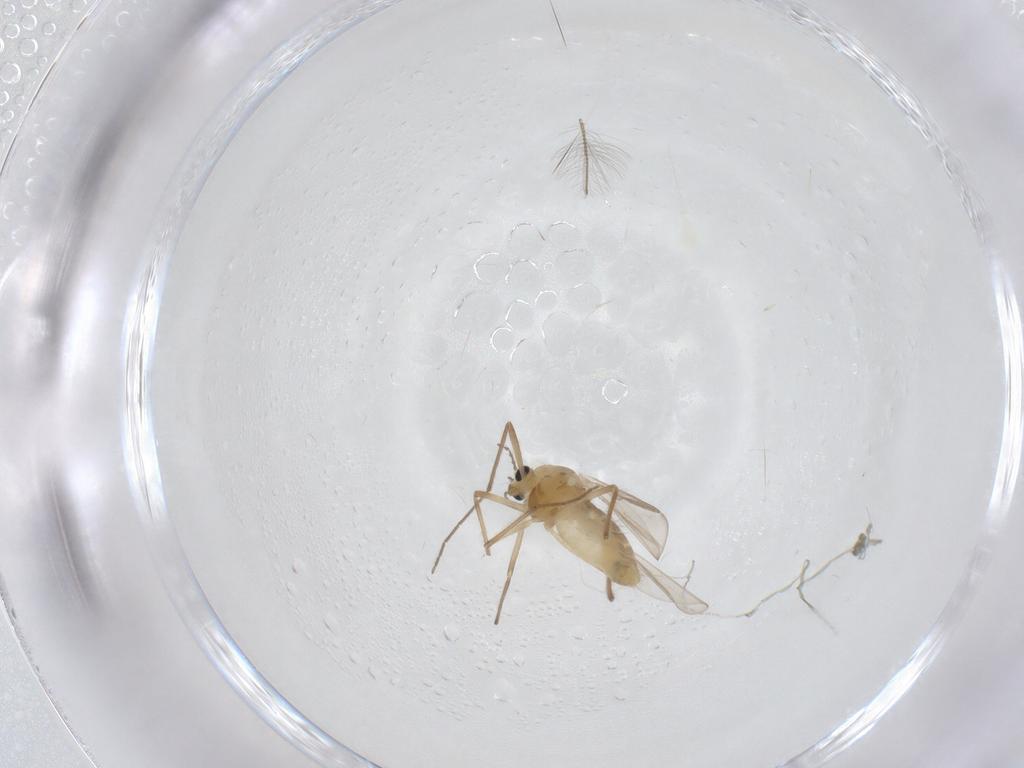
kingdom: Animalia
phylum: Arthropoda
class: Insecta
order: Diptera
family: Chironomidae
